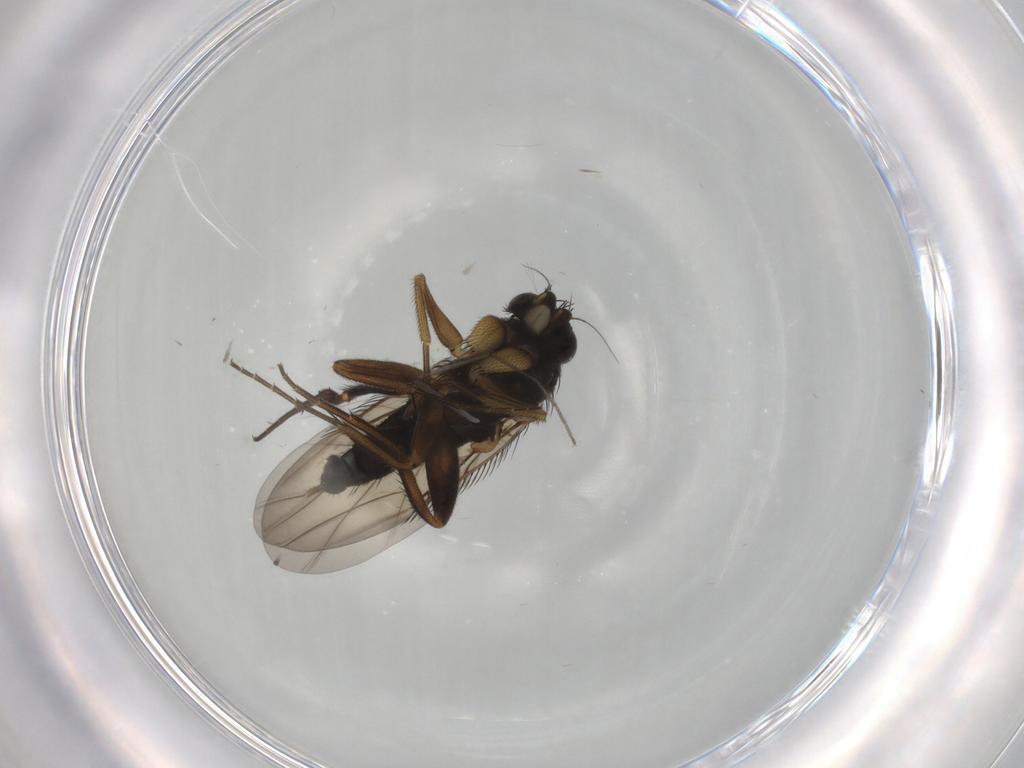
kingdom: Animalia
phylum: Arthropoda
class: Insecta
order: Diptera
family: Phoridae
